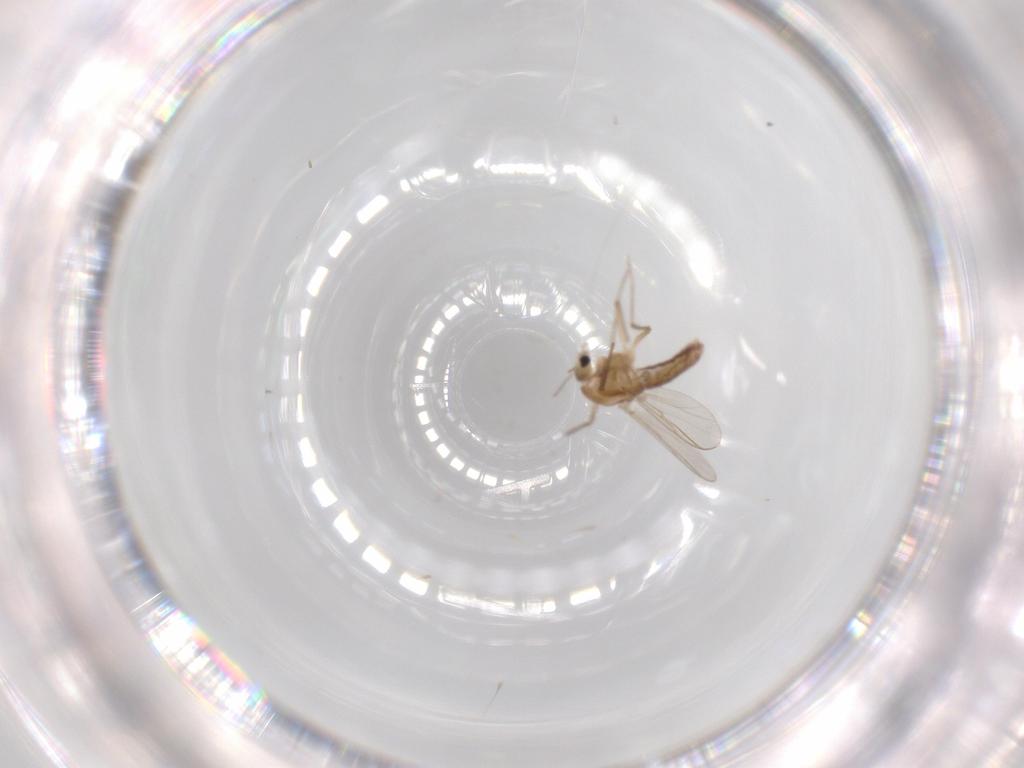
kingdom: Animalia
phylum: Arthropoda
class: Insecta
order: Diptera
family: Chironomidae
